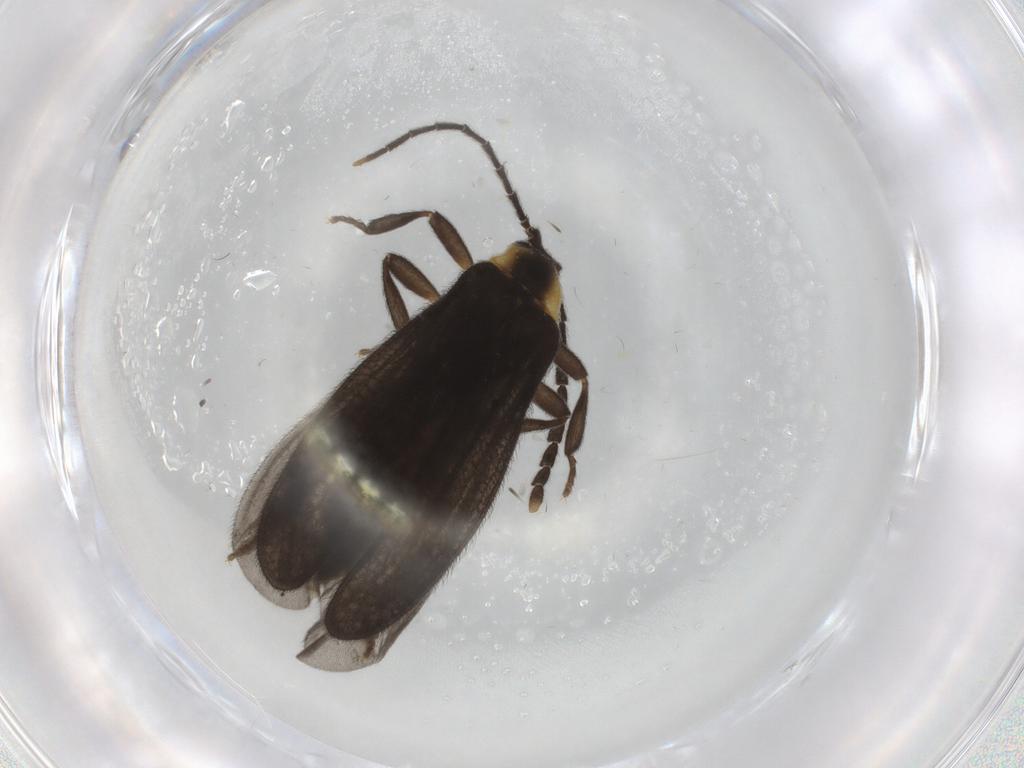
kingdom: Animalia
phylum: Arthropoda
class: Insecta
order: Coleoptera
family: Lycidae
